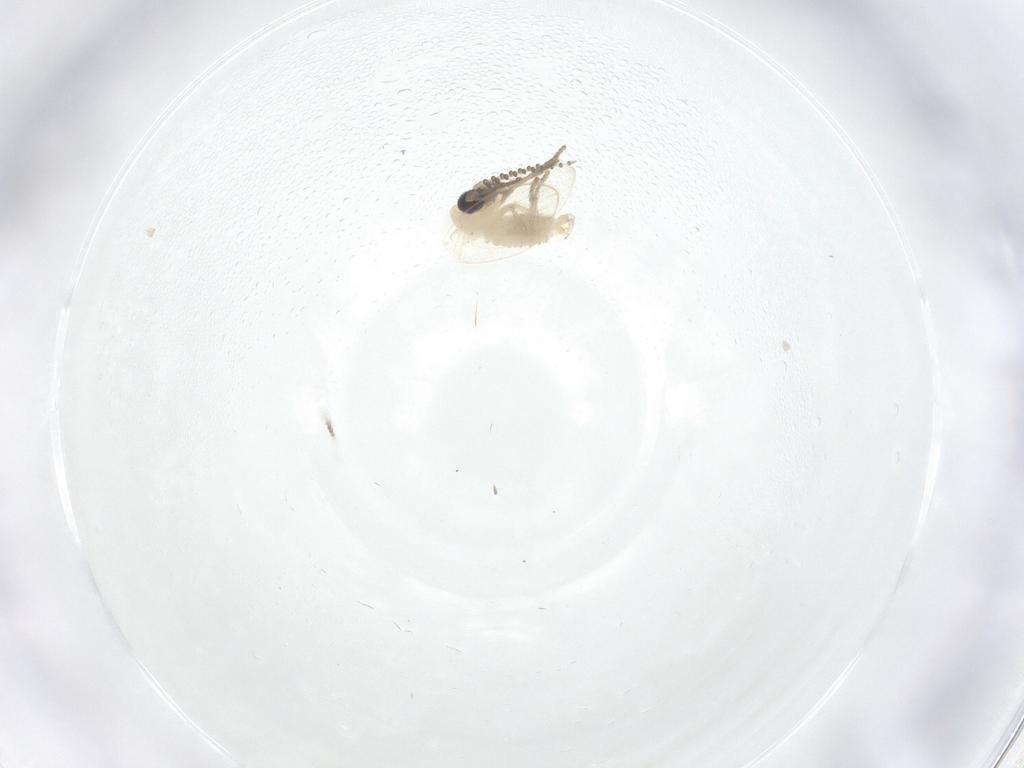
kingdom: Animalia
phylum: Arthropoda
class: Insecta
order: Diptera
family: Psychodidae
